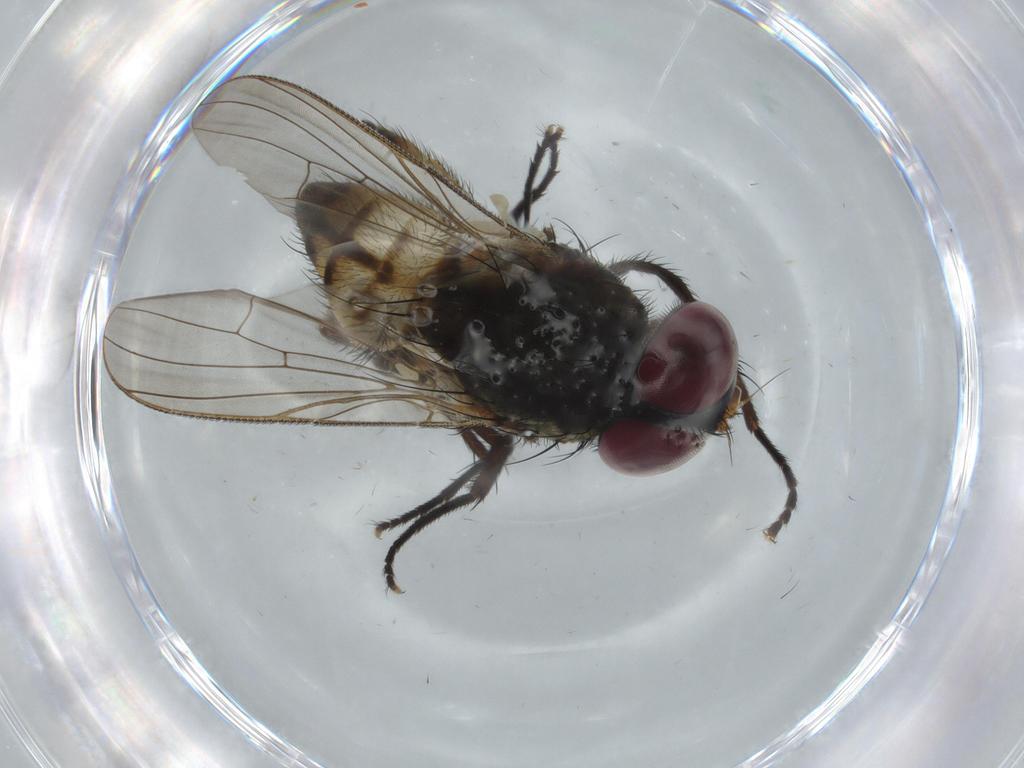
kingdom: Animalia
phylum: Arthropoda
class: Insecta
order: Diptera
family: Fannia
